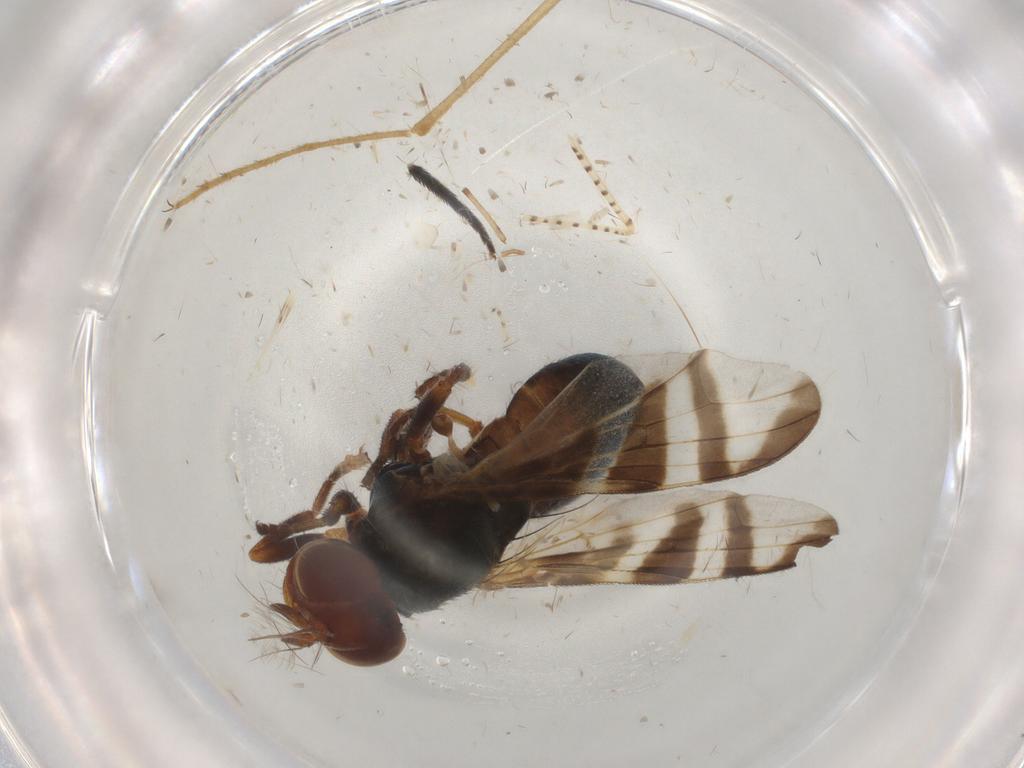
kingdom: Animalia
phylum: Arthropoda
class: Insecta
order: Diptera
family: Platystomatidae
